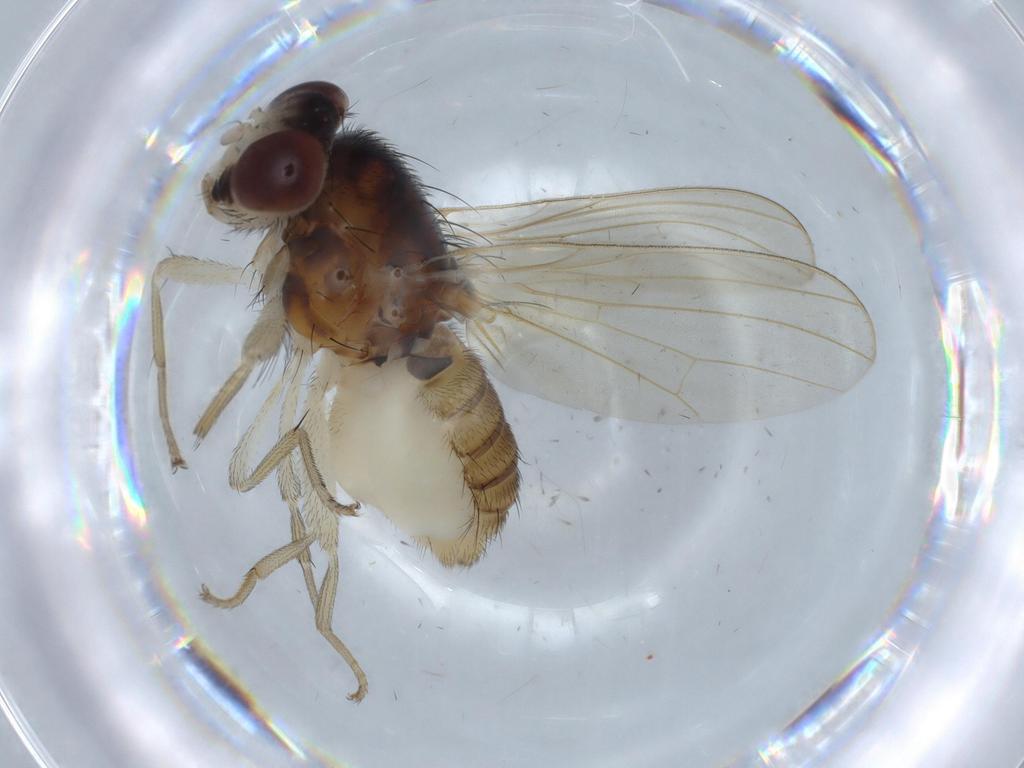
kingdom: Animalia
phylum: Arthropoda
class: Insecta
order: Diptera
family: Lauxaniidae
